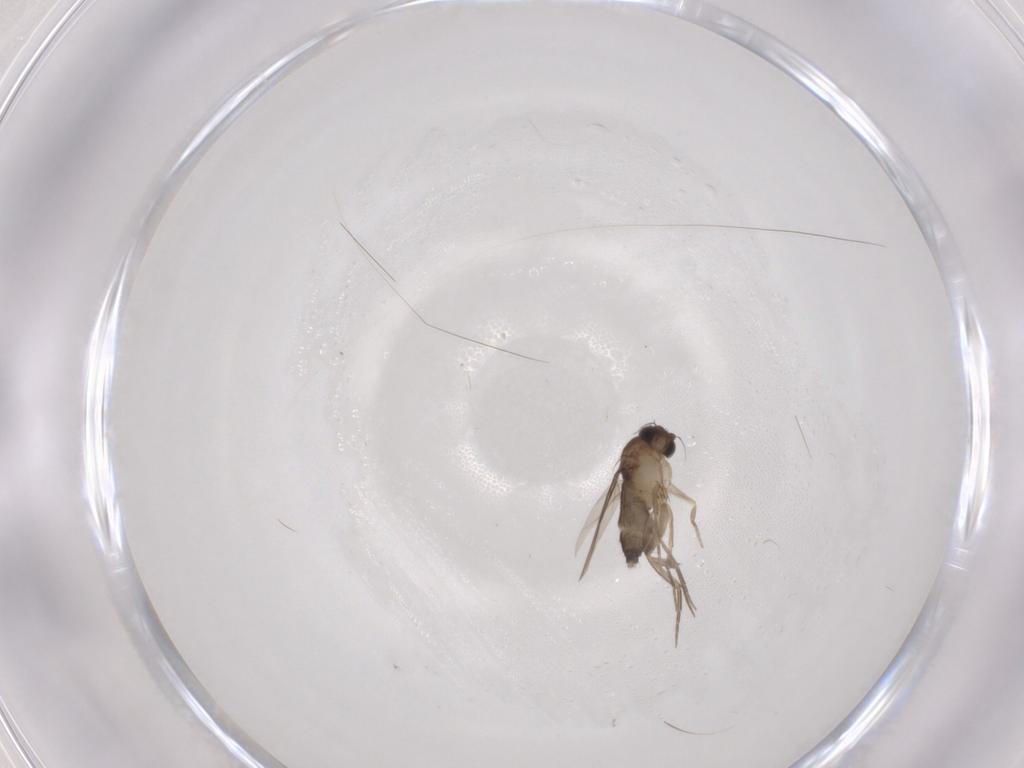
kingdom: Animalia
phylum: Arthropoda
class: Insecta
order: Diptera
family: Phoridae
